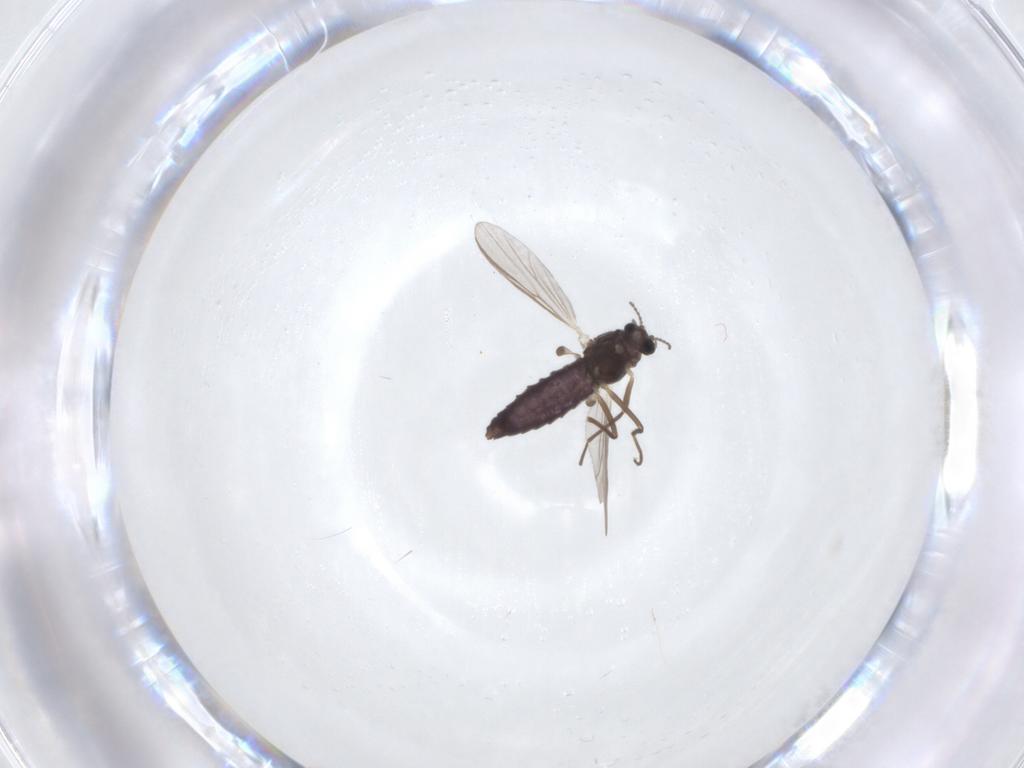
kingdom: Animalia
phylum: Arthropoda
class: Insecta
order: Diptera
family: Chironomidae
